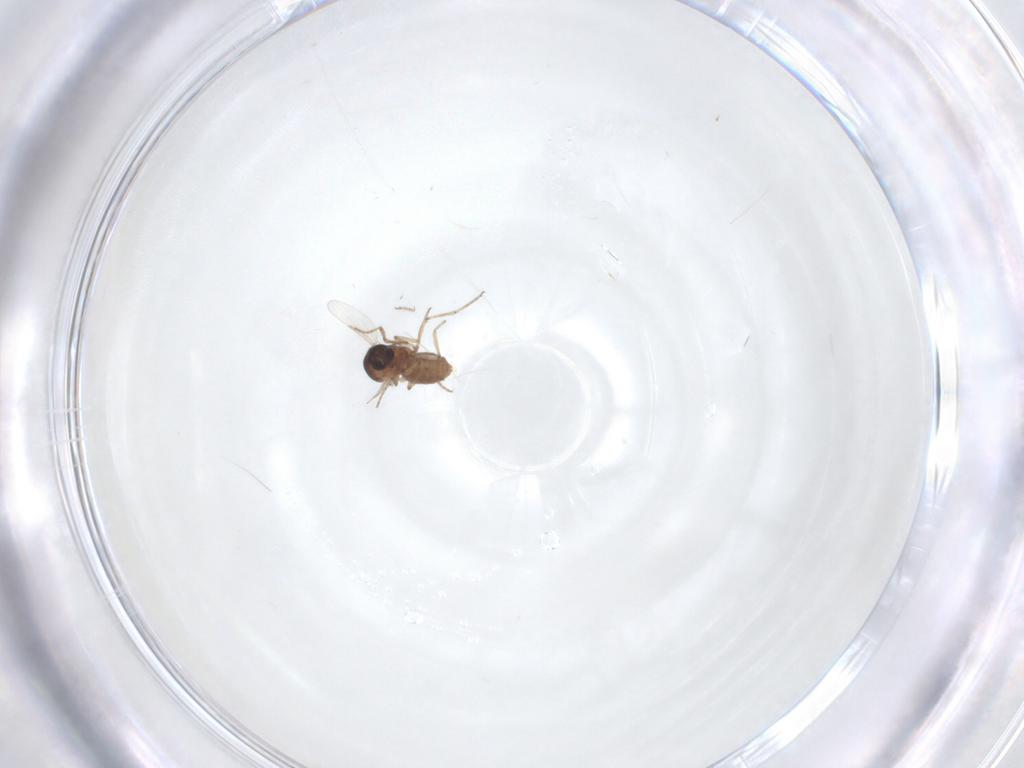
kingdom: Animalia
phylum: Arthropoda
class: Insecta
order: Diptera
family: Ceratopogonidae
